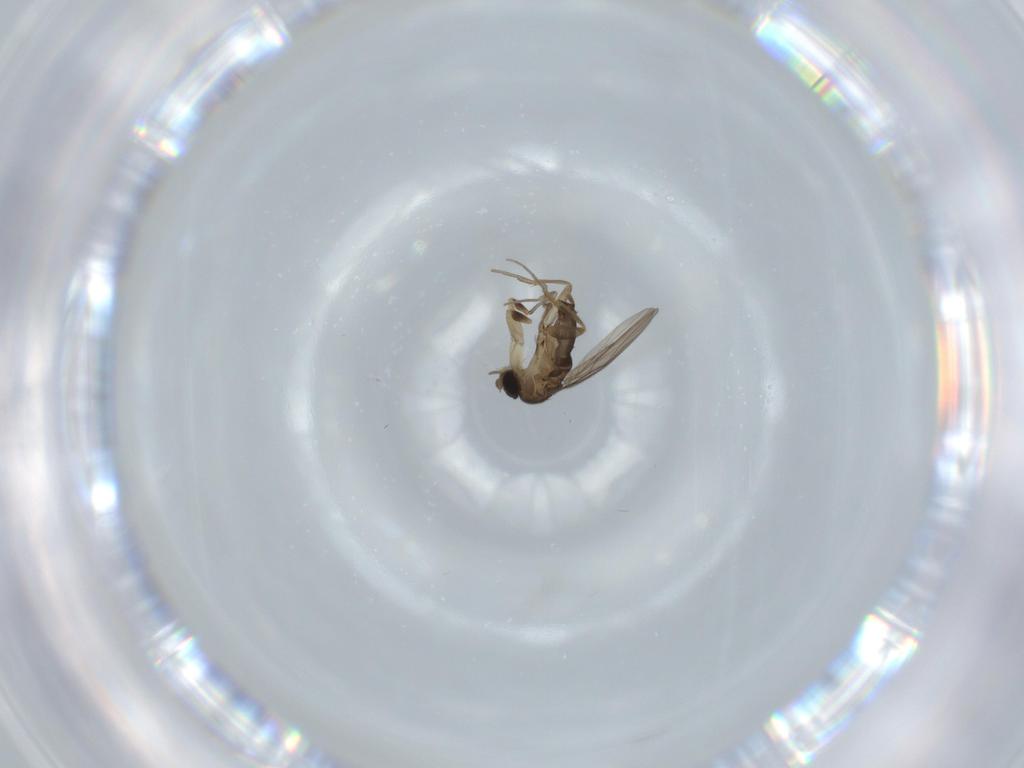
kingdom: Animalia
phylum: Arthropoda
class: Insecta
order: Diptera
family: Phoridae
